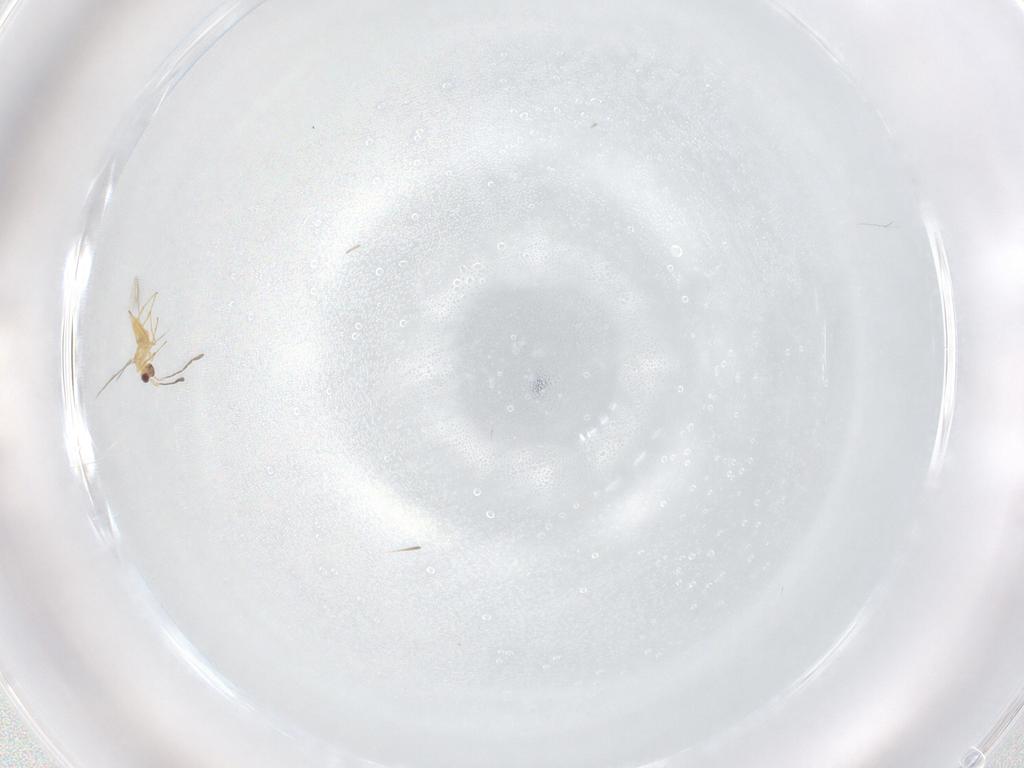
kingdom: Animalia
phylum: Arthropoda
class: Insecta
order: Hymenoptera
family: Mymaridae
